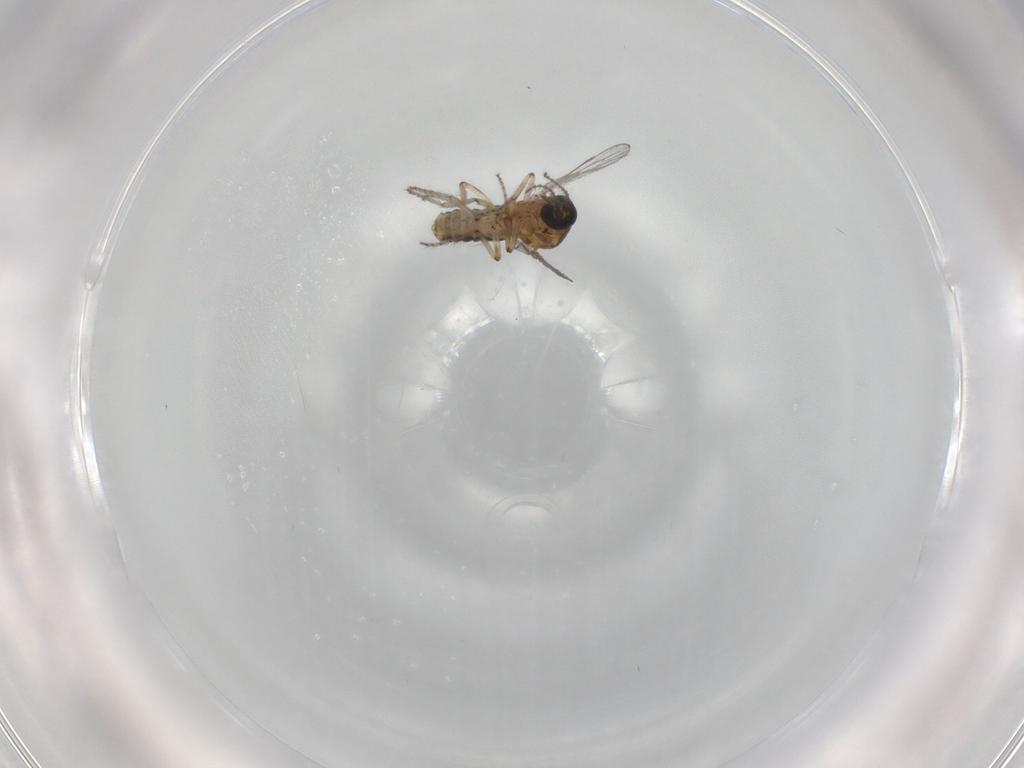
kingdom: Animalia
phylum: Arthropoda
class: Insecta
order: Diptera
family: Ceratopogonidae
